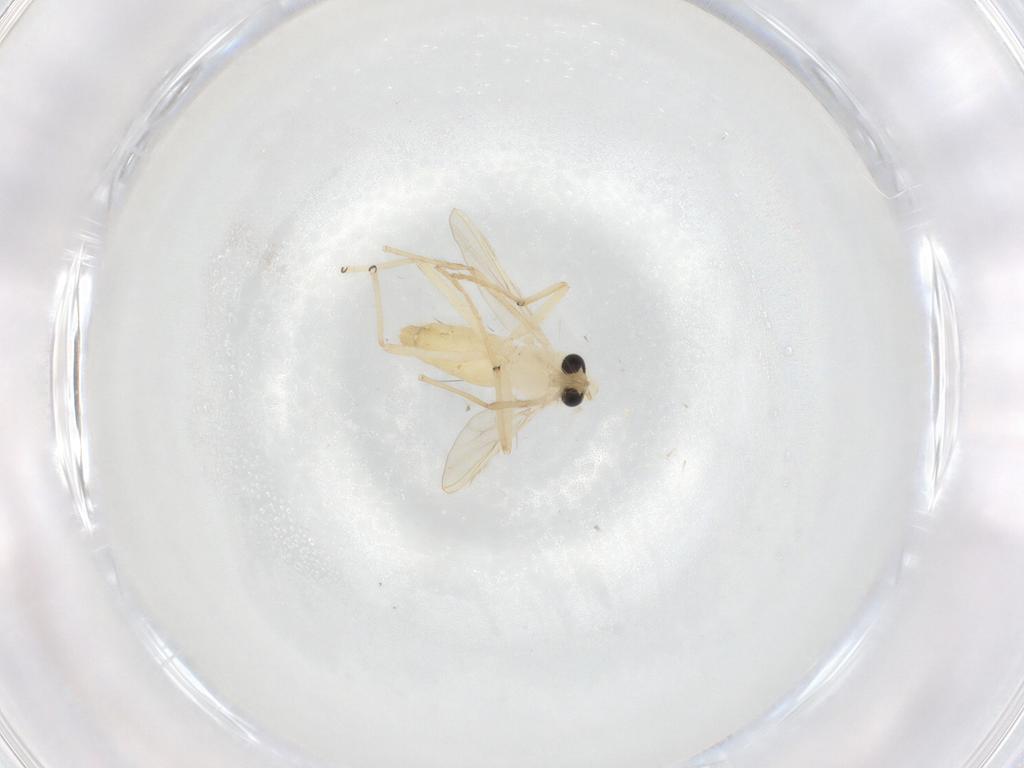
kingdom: Animalia
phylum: Arthropoda
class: Insecta
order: Diptera
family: Chironomidae
